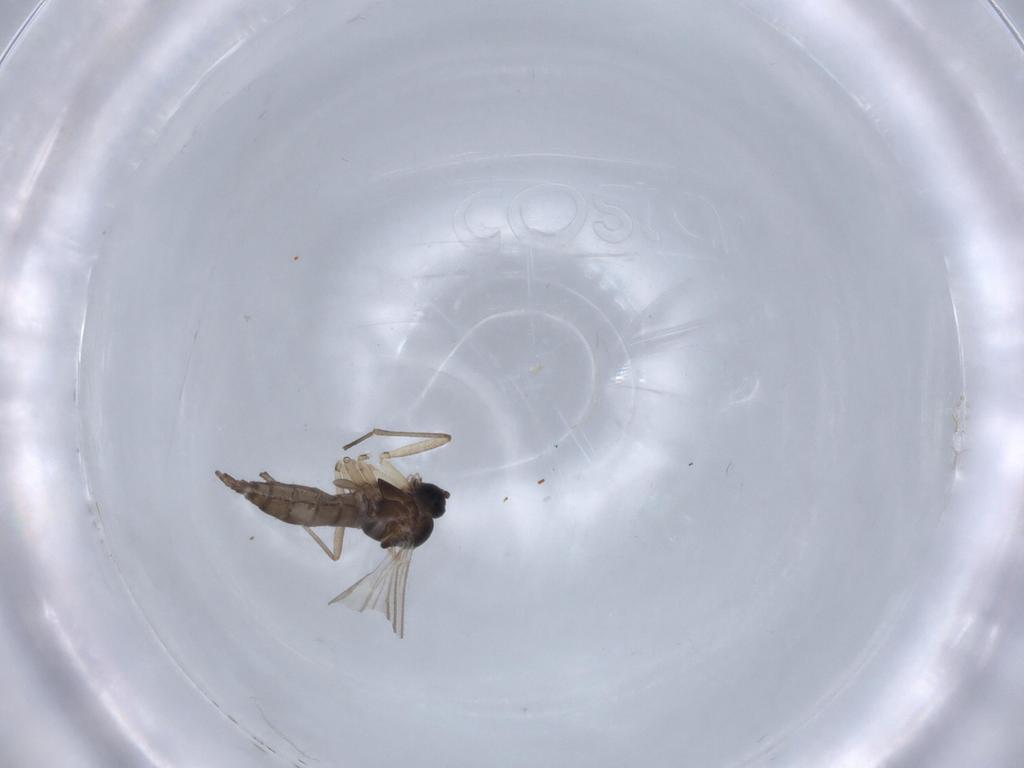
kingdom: Animalia
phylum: Arthropoda
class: Insecta
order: Diptera
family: Sciaridae
